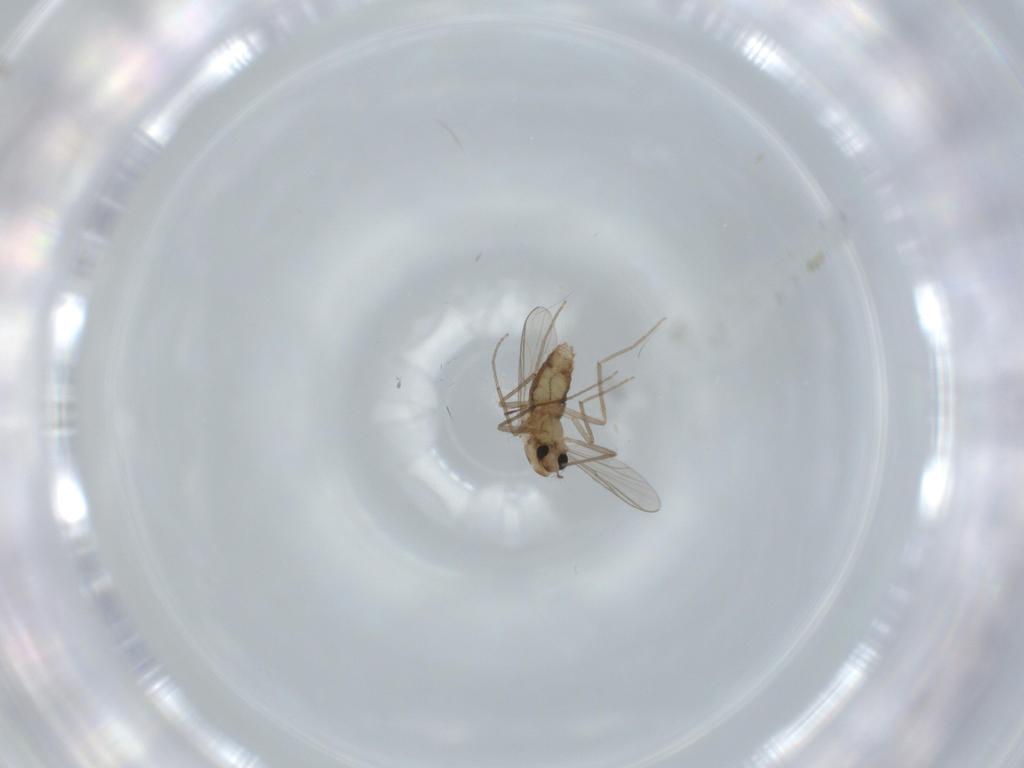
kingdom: Animalia
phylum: Arthropoda
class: Insecta
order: Diptera
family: Chironomidae
